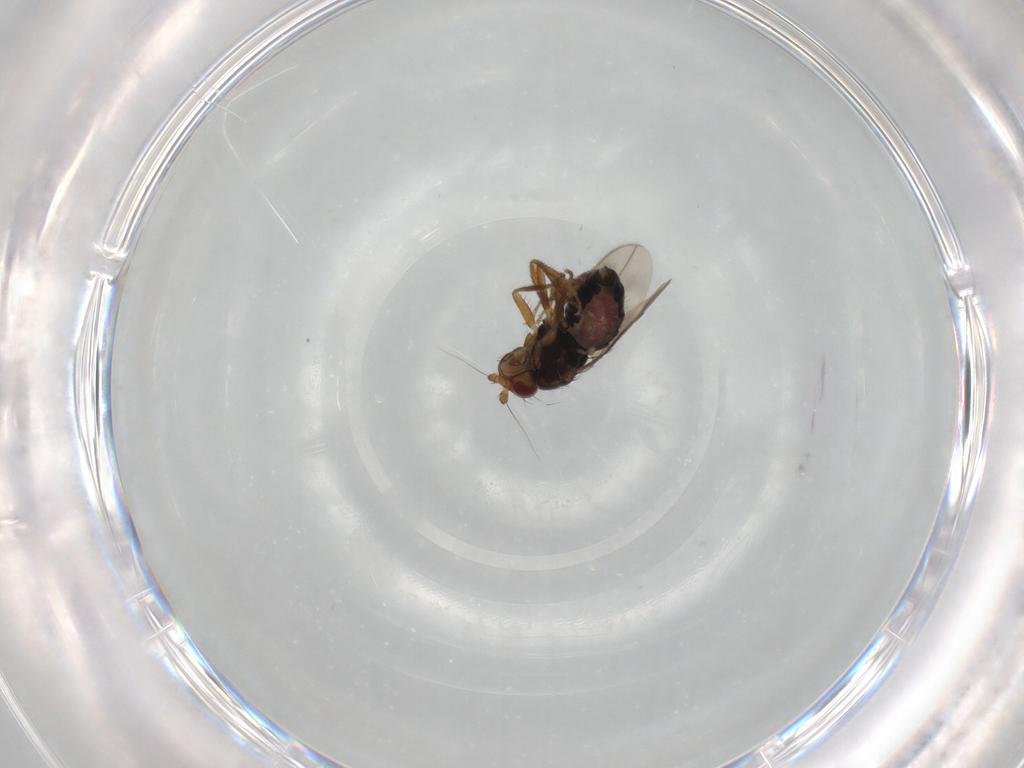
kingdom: Animalia
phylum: Arthropoda
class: Insecta
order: Diptera
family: Sphaeroceridae
